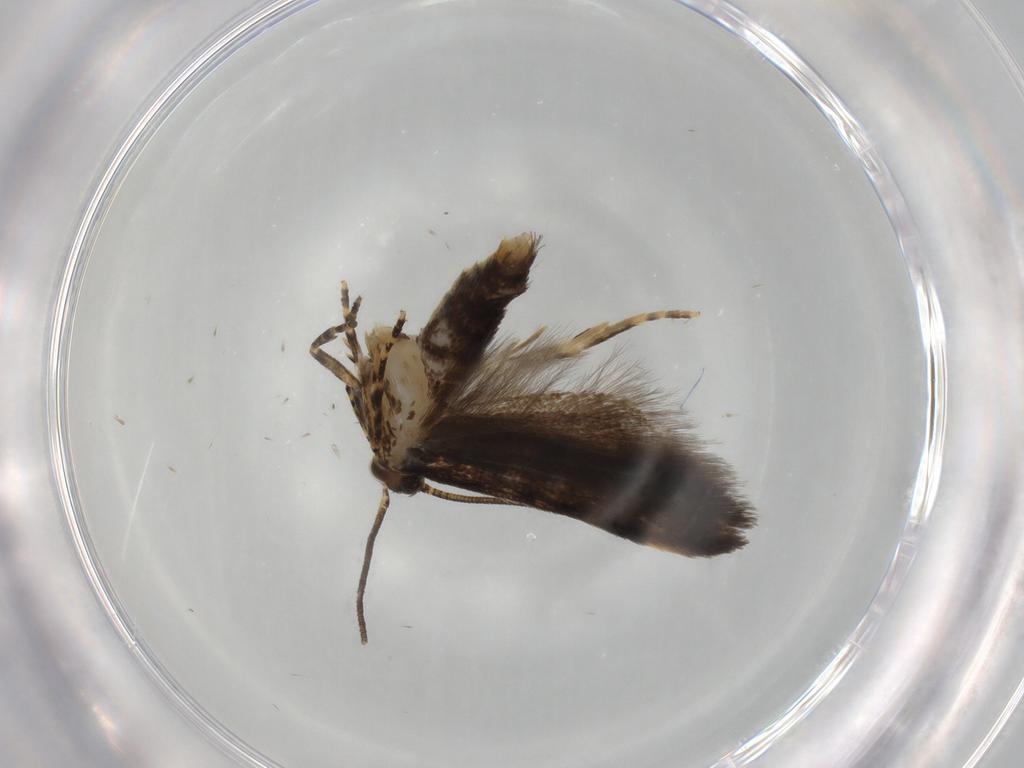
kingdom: Animalia
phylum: Arthropoda
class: Insecta
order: Lepidoptera
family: Oecophoridae
